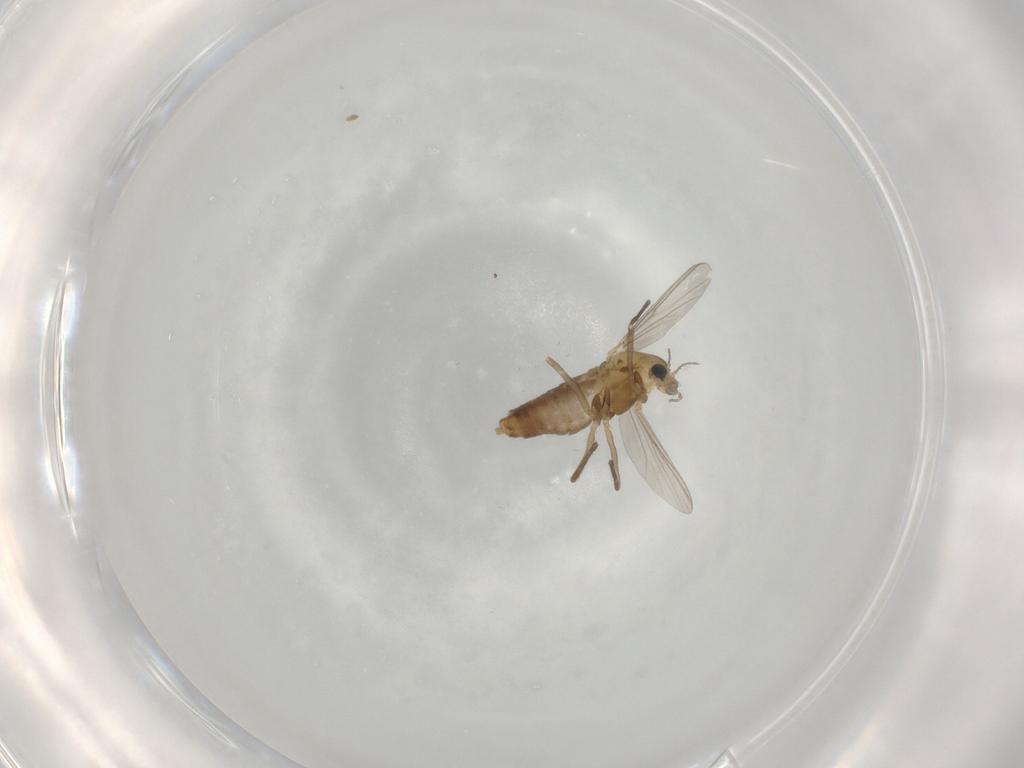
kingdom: Animalia
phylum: Arthropoda
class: Insecta
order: Diptera
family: Chironomidae
